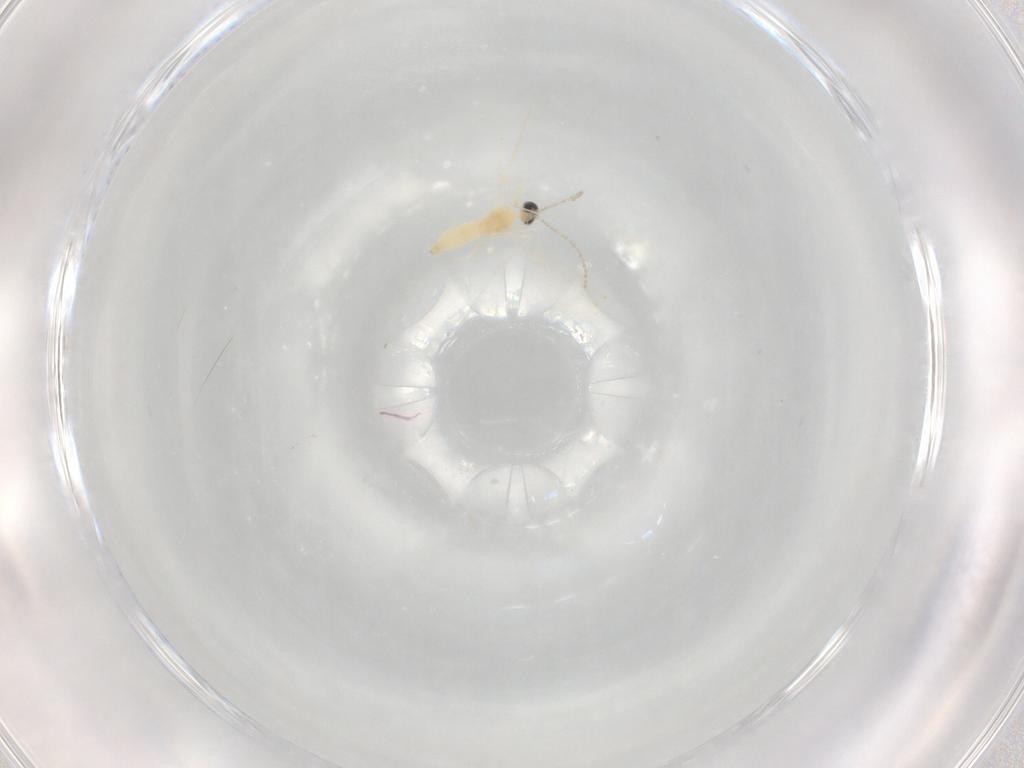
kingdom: Animalia
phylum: Arthropoda
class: Insecta
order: Diptera
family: Cecidomyiidae
